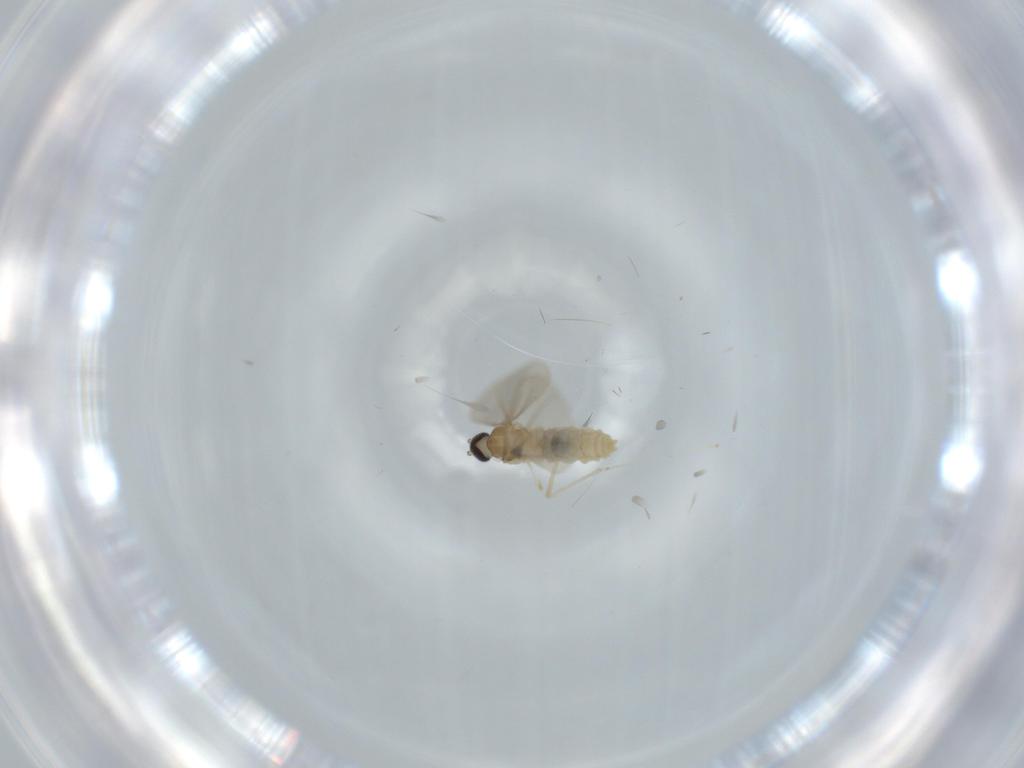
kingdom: Animalia
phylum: Arthropoda
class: Insecta
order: Diptera
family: Cecidomyiidae
